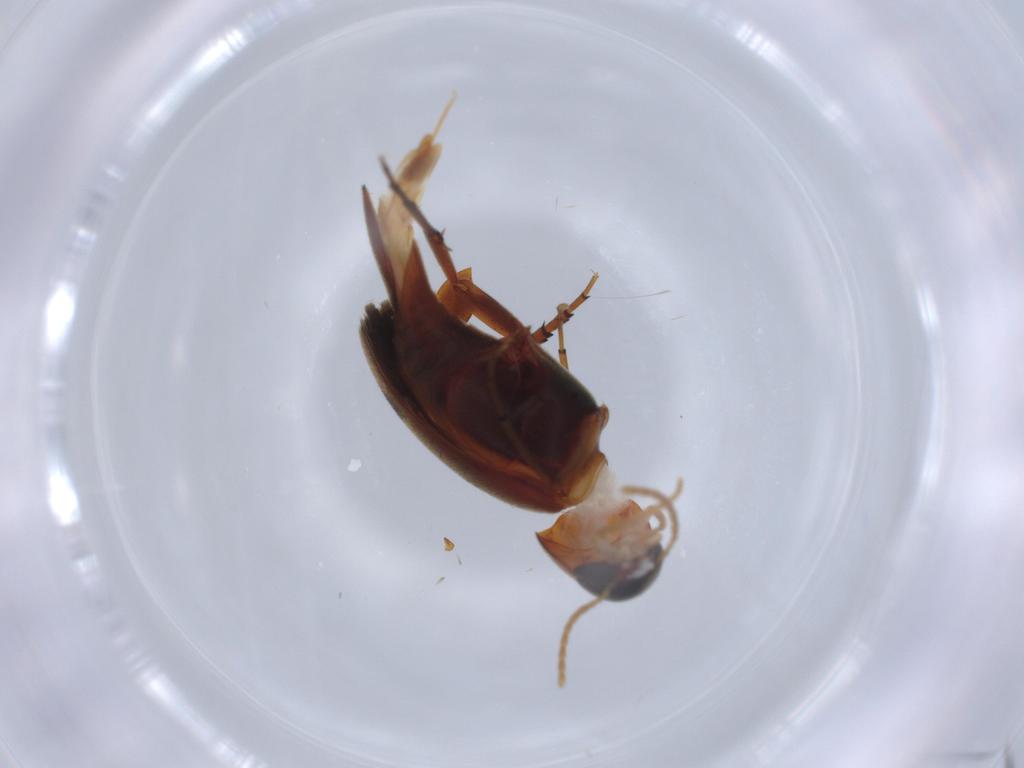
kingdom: Animalia
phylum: Arthropoda
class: Insecta
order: Coleoptera
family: Mordellidae
